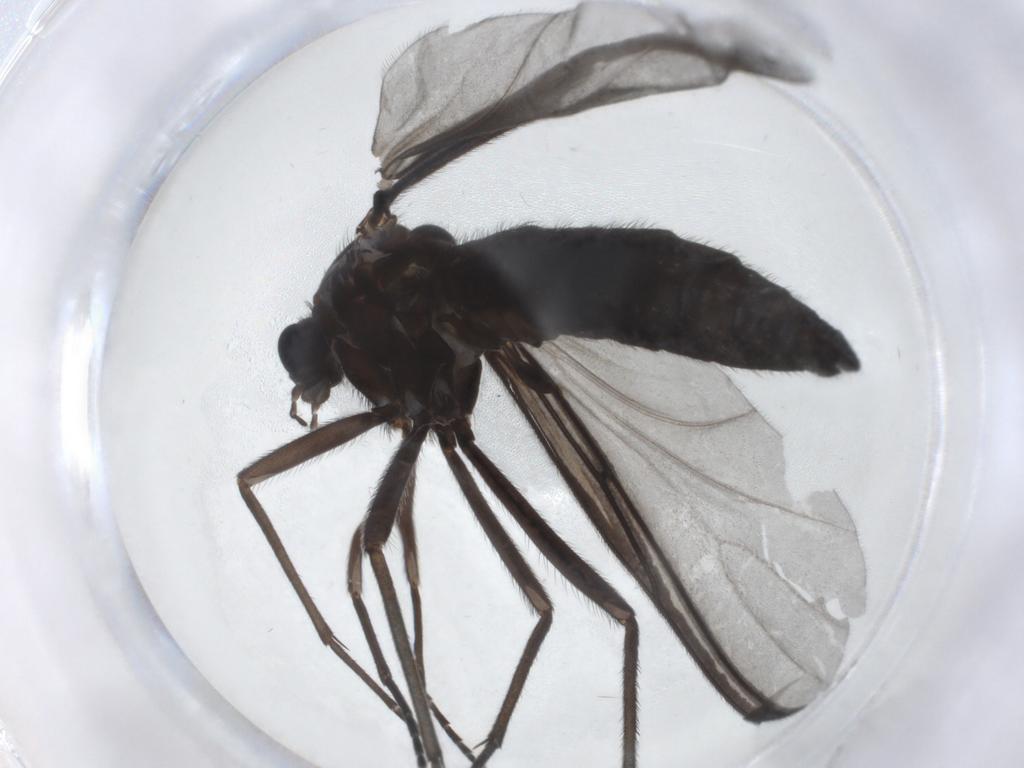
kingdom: Animalia
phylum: Arthropoda
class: Insecta
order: Diptera
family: Sciaridae
